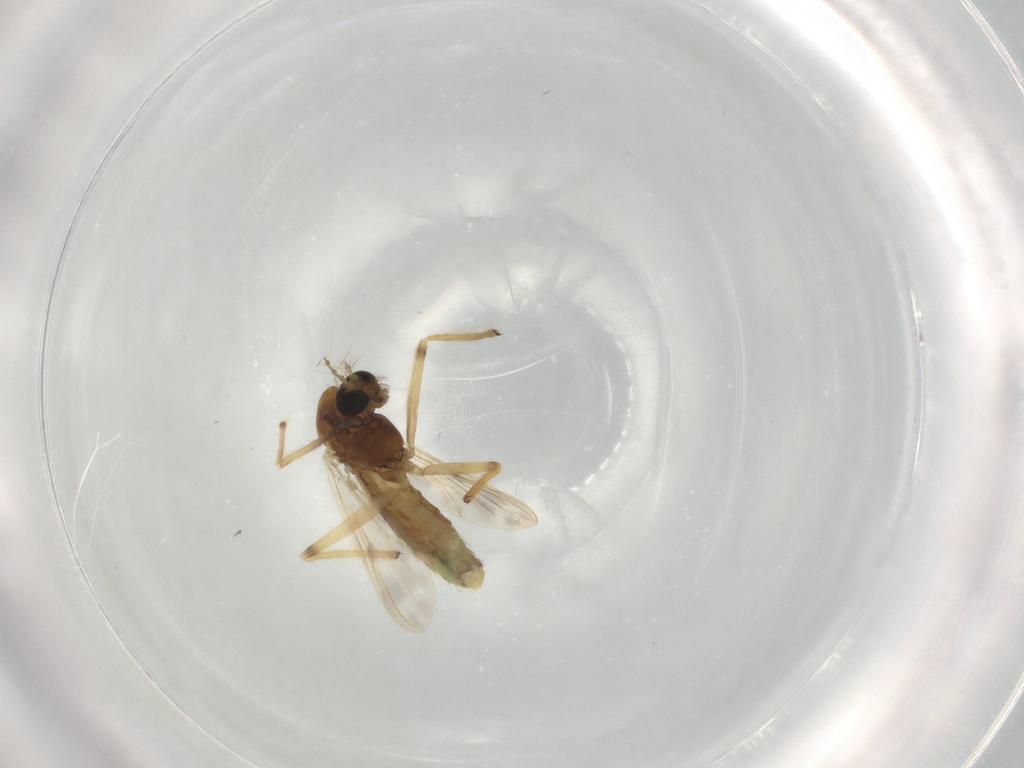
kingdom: Animalia
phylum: Arthropoda
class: Insecta
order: Diptera
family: Chironomidae
